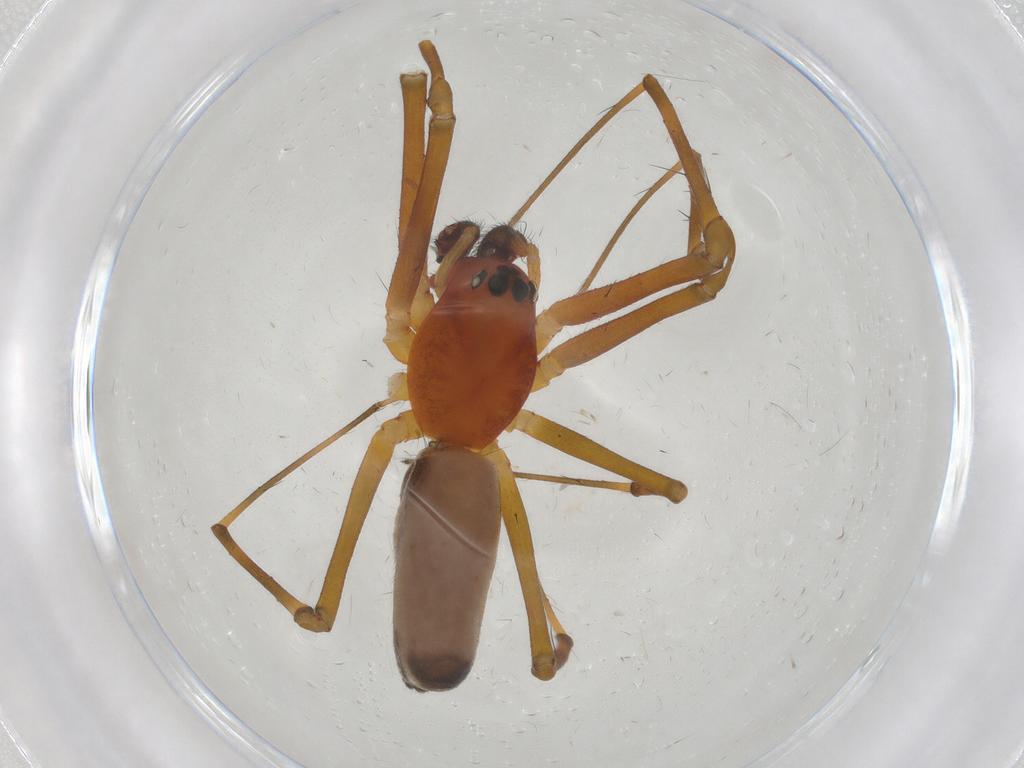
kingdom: Animalia
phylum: Arthropoda
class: Arachnida
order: Araneae
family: Linyphiidae
